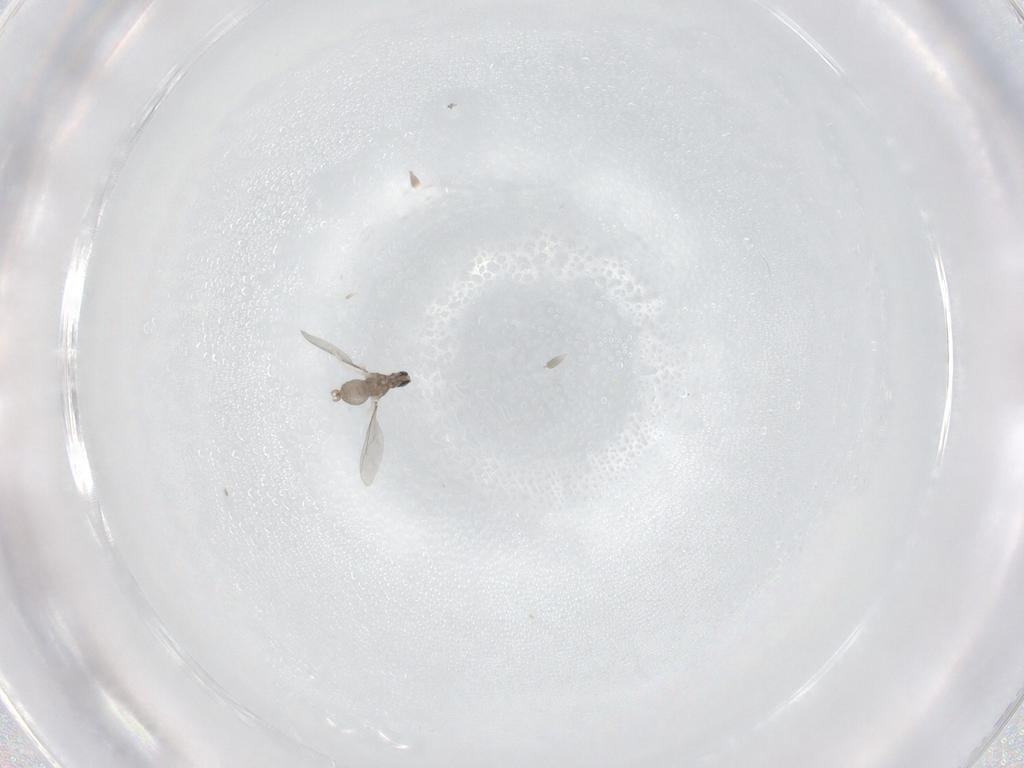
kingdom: Animalia
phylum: Arthropoda
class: Insecta
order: Diptera
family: Cecidomyiidae
